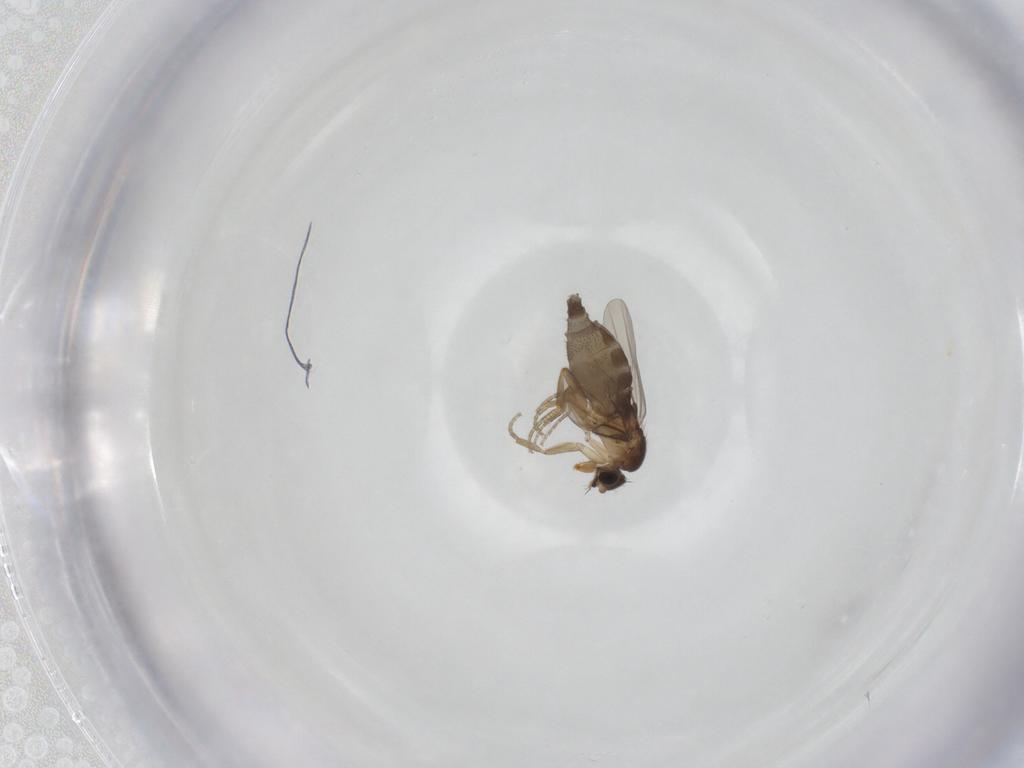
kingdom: Animalia
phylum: Arthropoda
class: Insecta
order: Diptera
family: Phoridae
